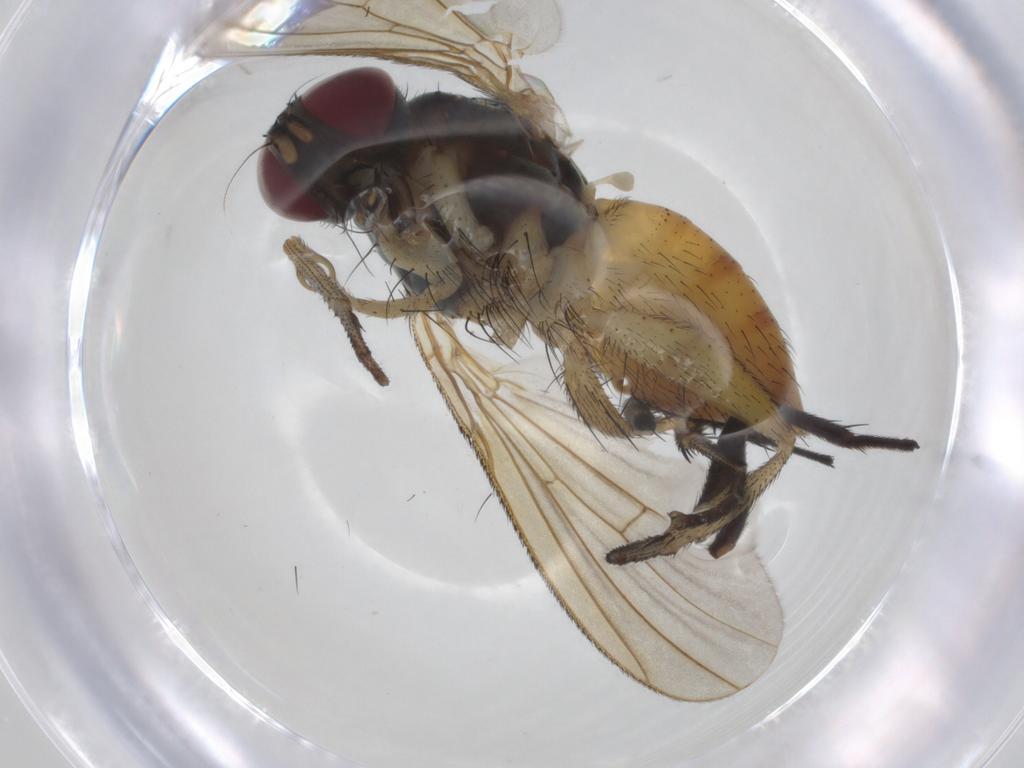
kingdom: Animalia
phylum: Arthropoda
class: Insecta
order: Diptera
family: Stratiomyidae
